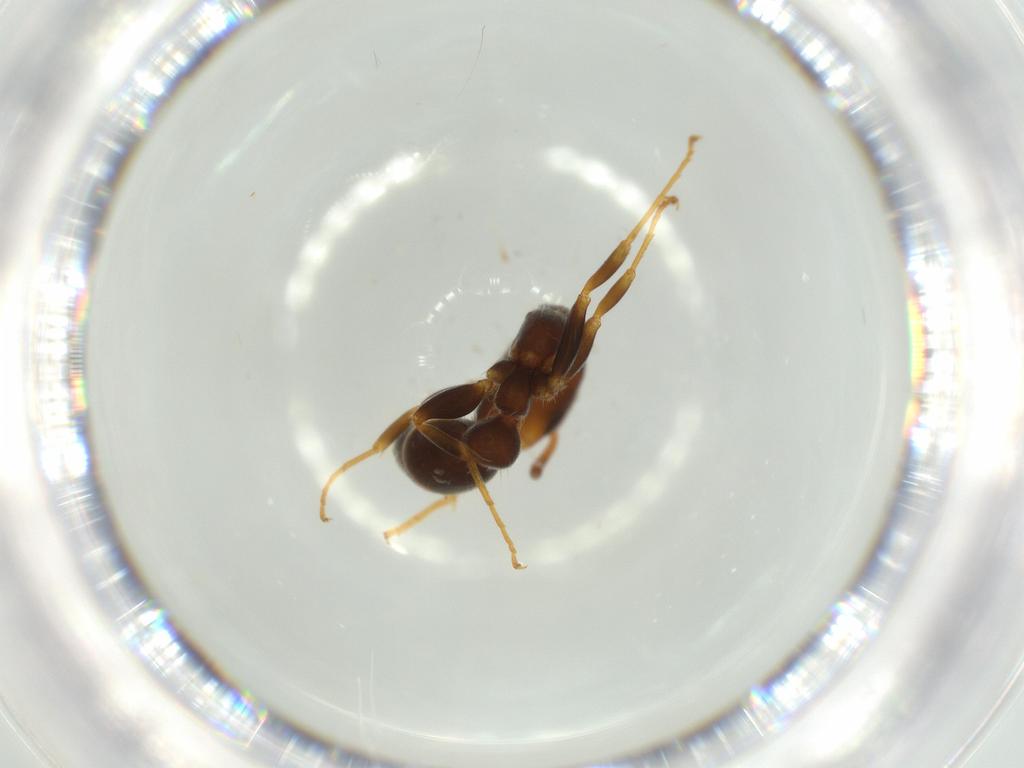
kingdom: Animalia
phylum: Arthropoda
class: Insecta
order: Hymenoptera
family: Formicidae
